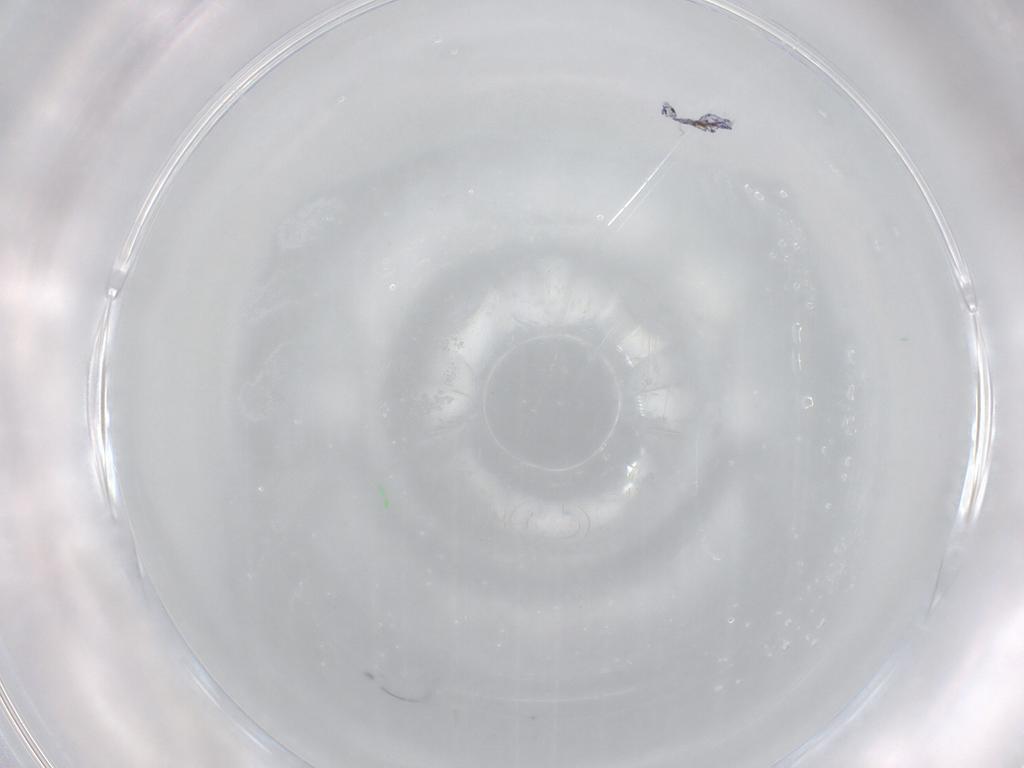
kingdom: Animalia
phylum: Arthropoda
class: Collembola
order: Entomobryomorpha
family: Entomobryidae
